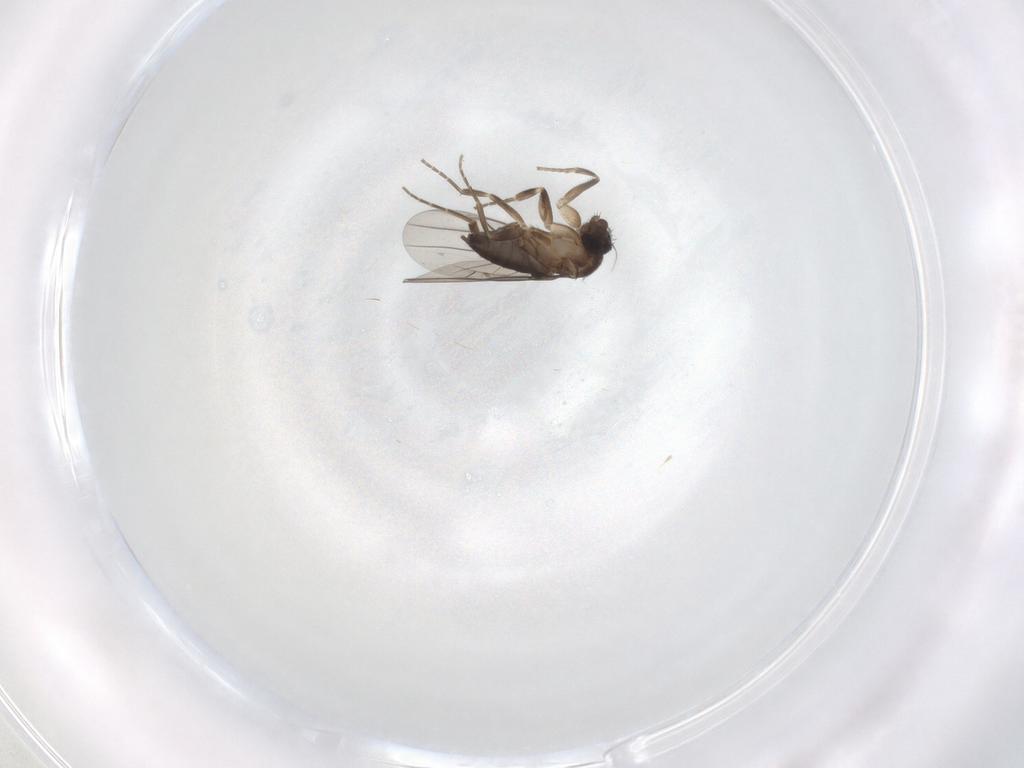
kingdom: Animalia
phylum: Arthropoda
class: Insecta
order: Diptera
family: Phoridae
